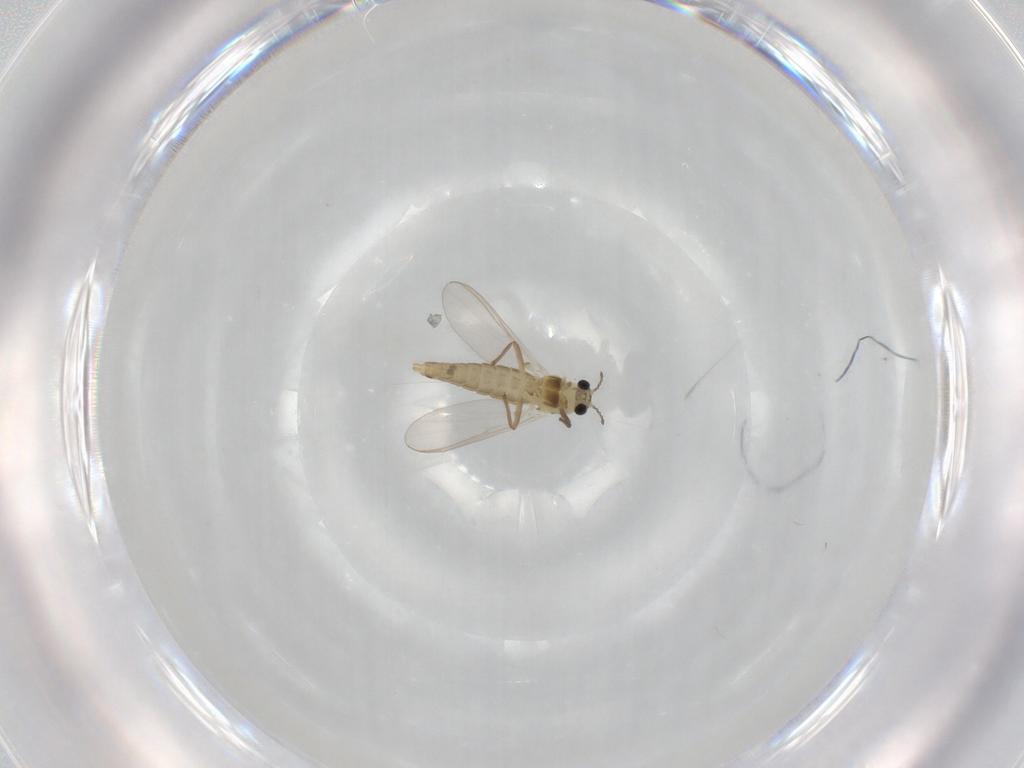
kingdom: Animalia
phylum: Arthropoda
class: Insecta
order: Diptera
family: Chironomidae
